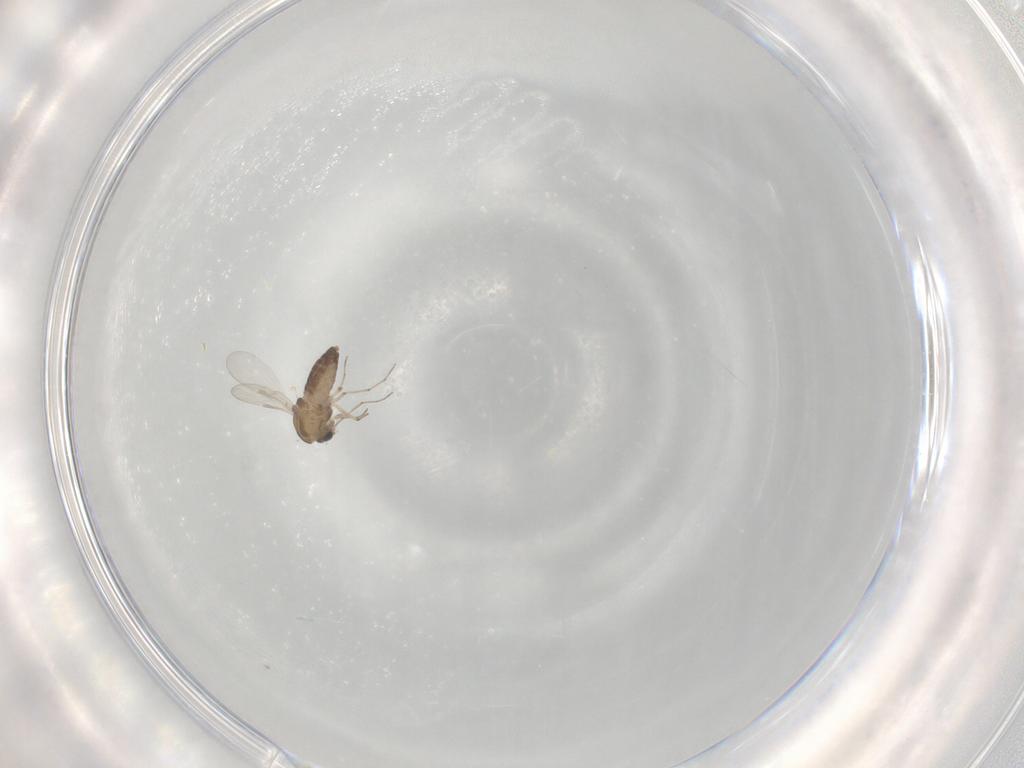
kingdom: Animalia
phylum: Arthropoda
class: Insecta
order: Diptera
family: Chironomidae
